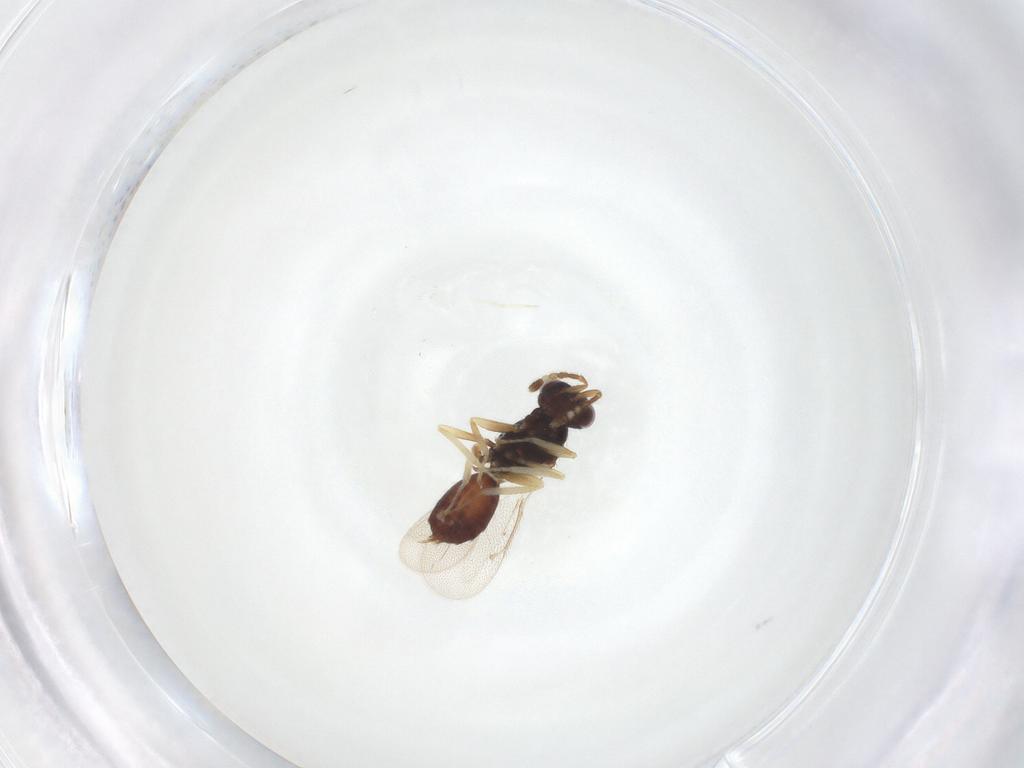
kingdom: Animalia
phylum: Arthropoda
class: Insecta
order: Hymenoptera
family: Eulophidae
